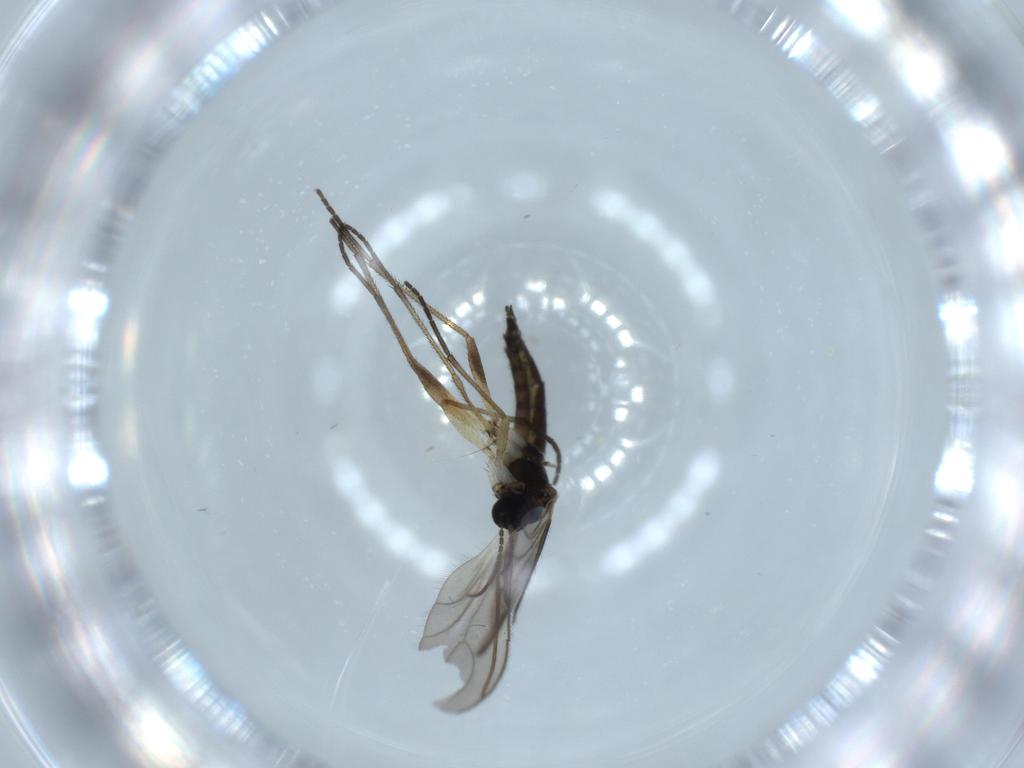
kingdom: Animalia
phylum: Arthropoda
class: Insecta
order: Diptera
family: Sciaridae
